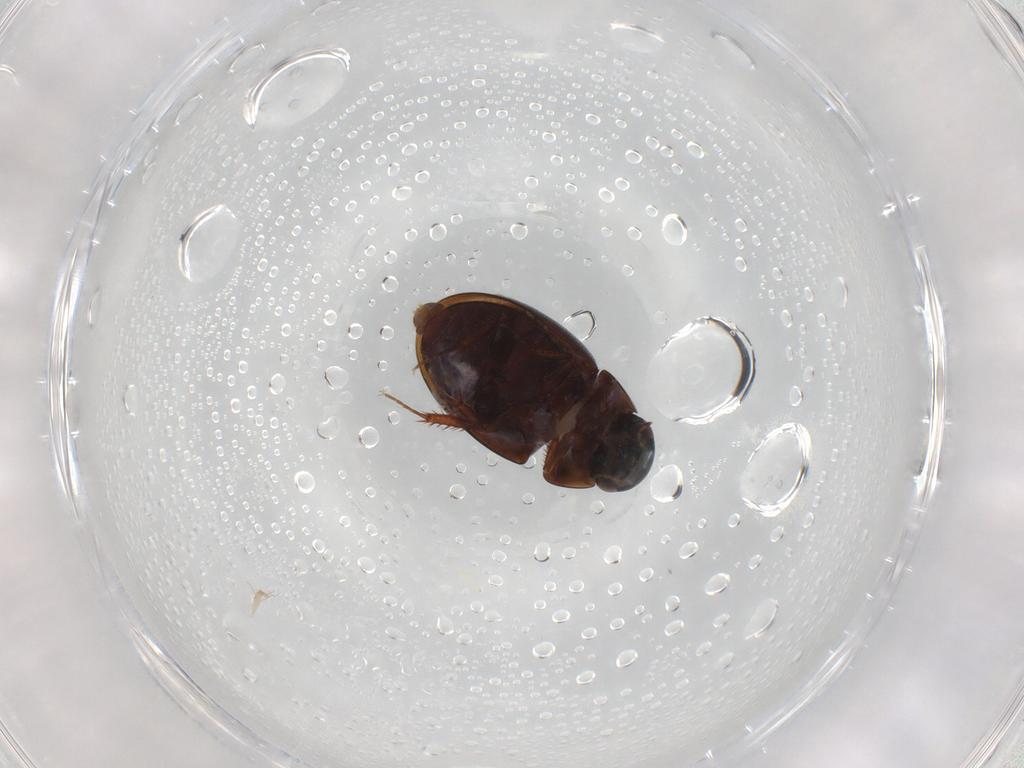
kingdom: Animalia
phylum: Arthropoda
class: Insecta
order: Coleoptera
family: Hydrophilidae
